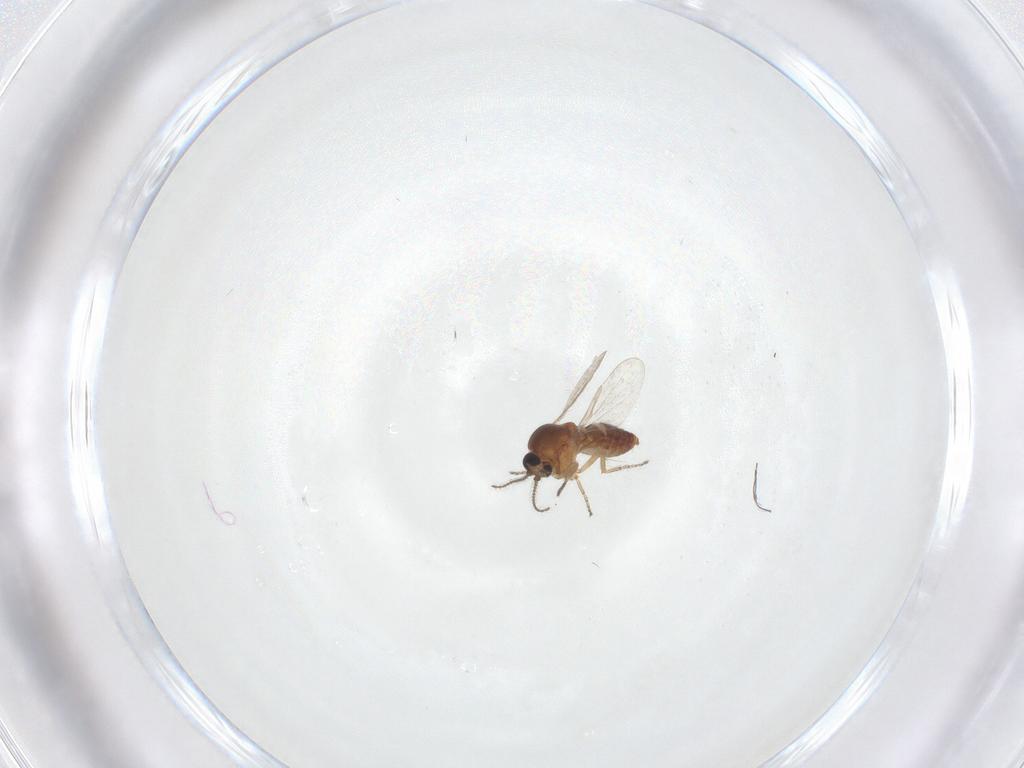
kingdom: Animalia
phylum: Arthropoda
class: Insecta
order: Diptera
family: Ceratopogonidae
